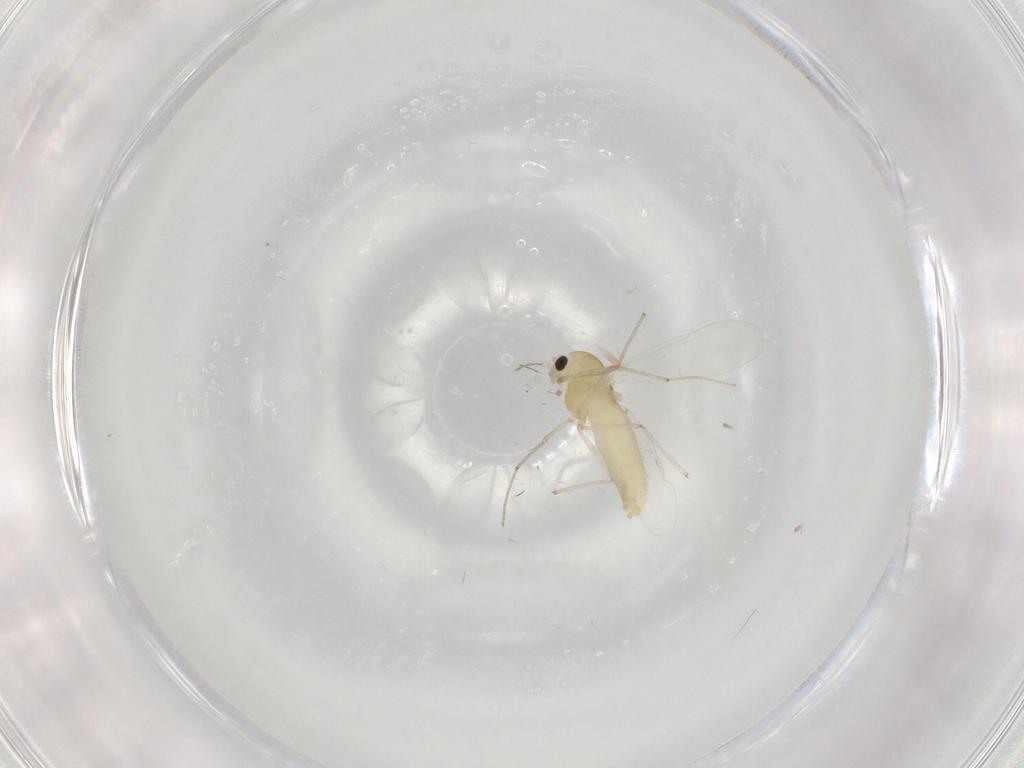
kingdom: Animalia
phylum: Arthropoda
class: Insecta
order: Diptera
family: Chironomidae
